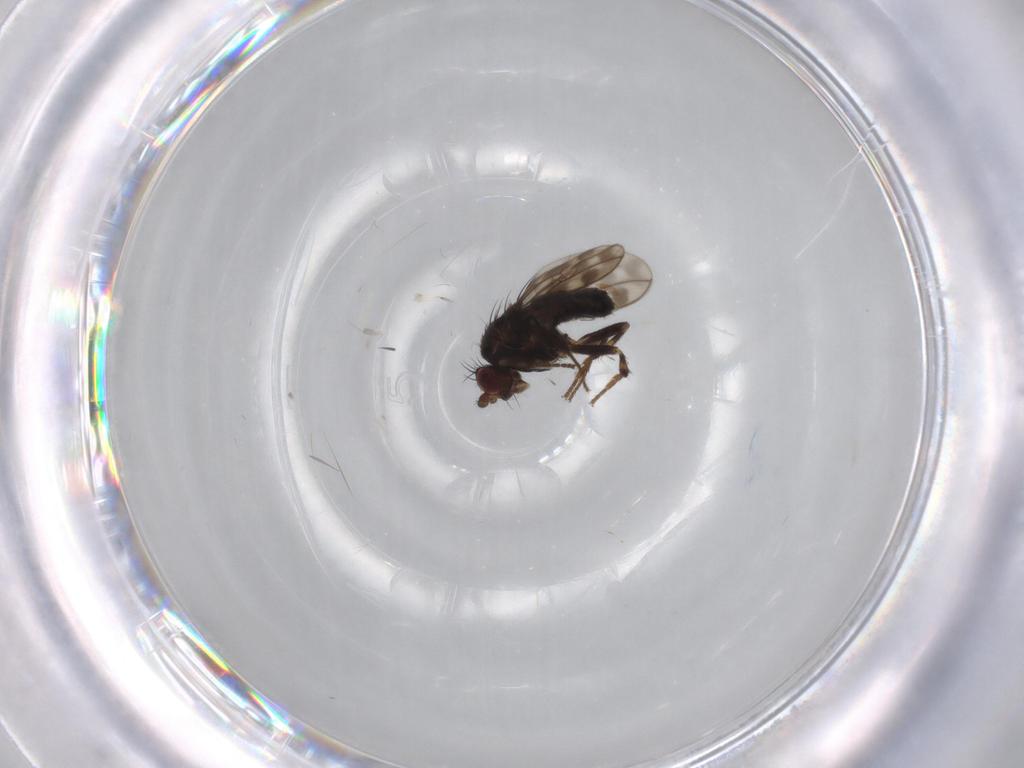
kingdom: Animalia
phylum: Arthropoda
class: Insecta
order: Diptera
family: Sphaeroceridae
